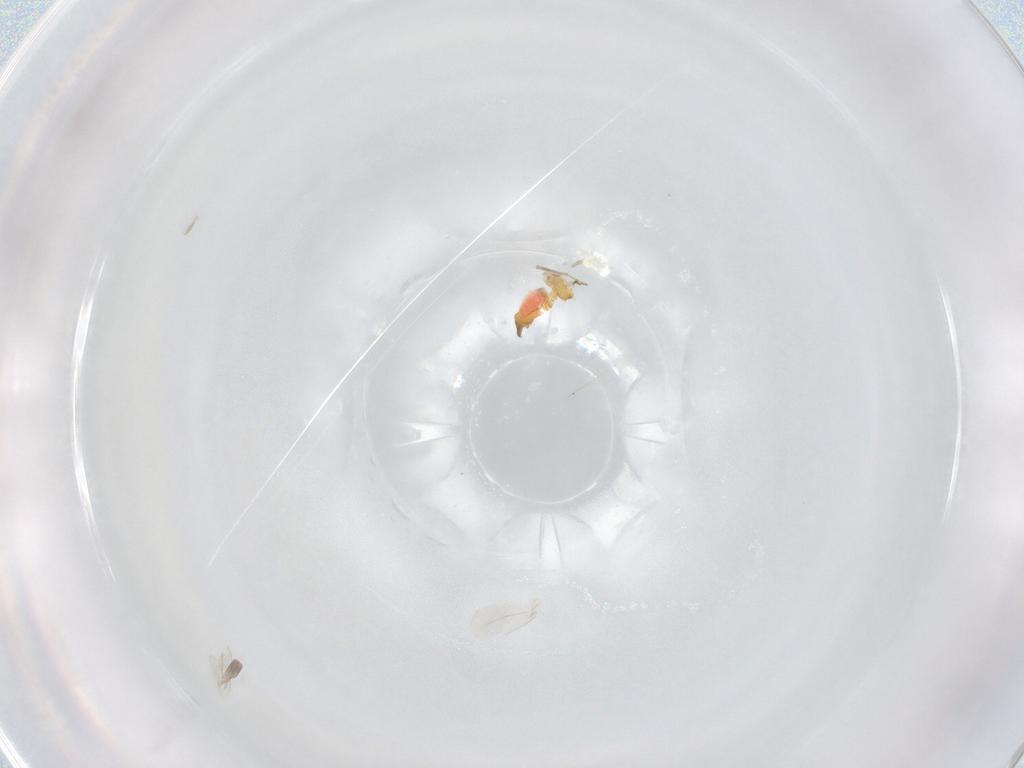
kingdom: Animalia
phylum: Arthropoda
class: Insecta
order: Hemiptera
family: Aleyrodidae
